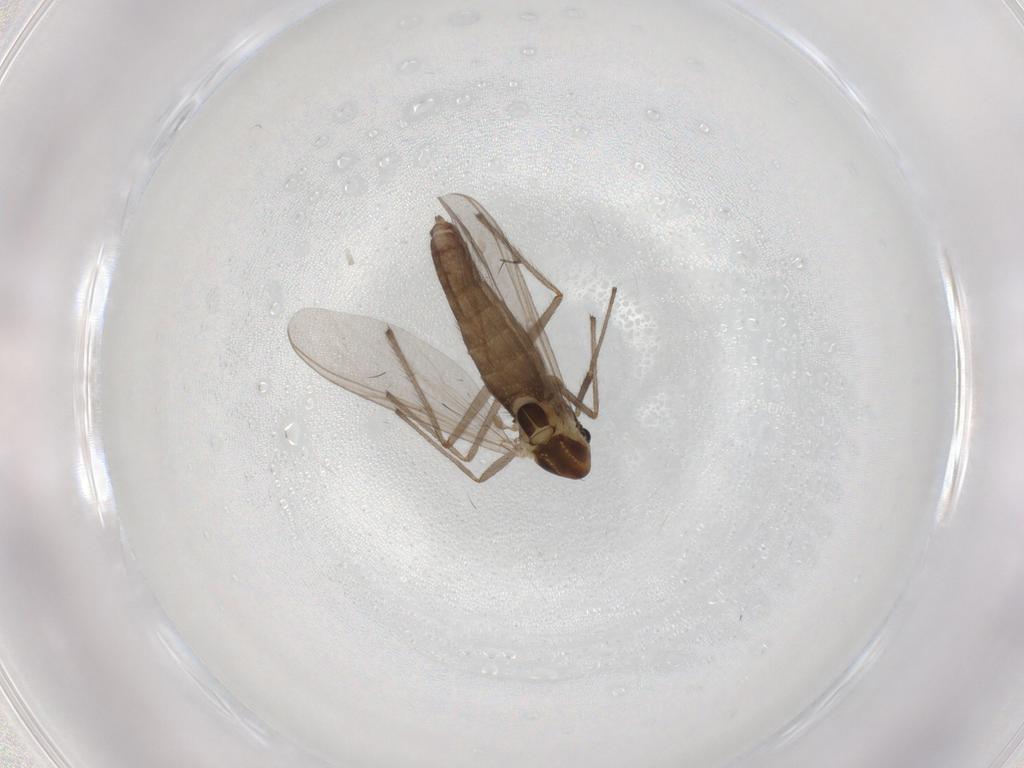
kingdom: Animalia
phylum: Arthropoda
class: Insecta
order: Diptera
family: Chironomidae
